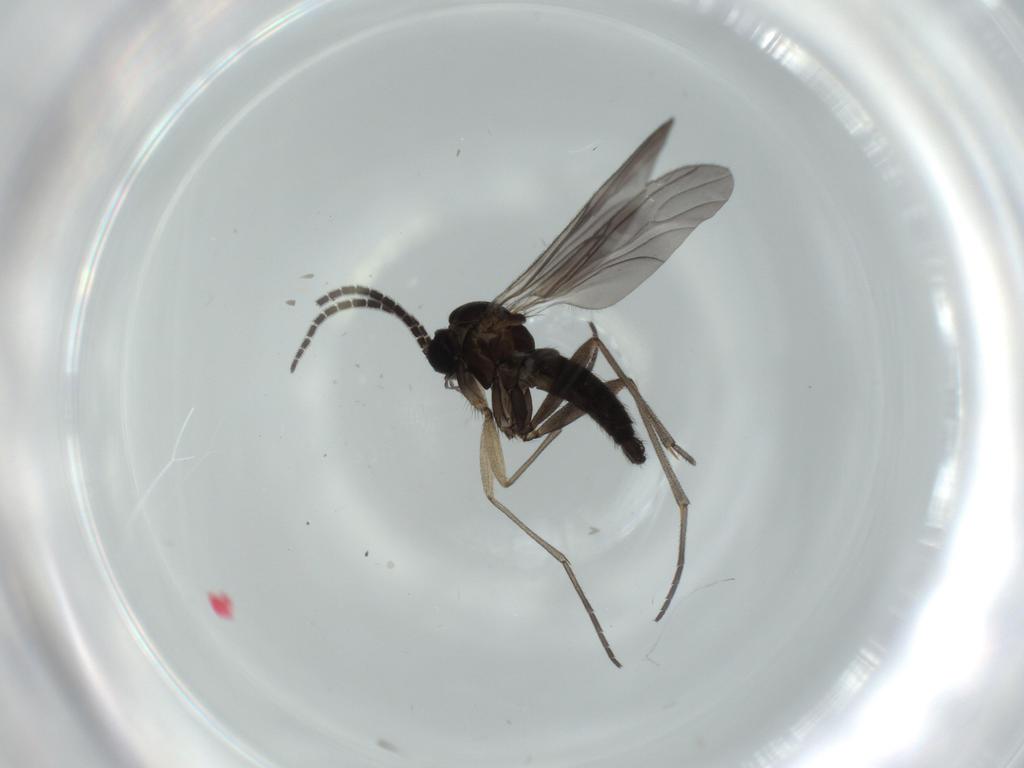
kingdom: Animalia
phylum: Arthropoda
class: Insecta
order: Diptera
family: Sciaridae
